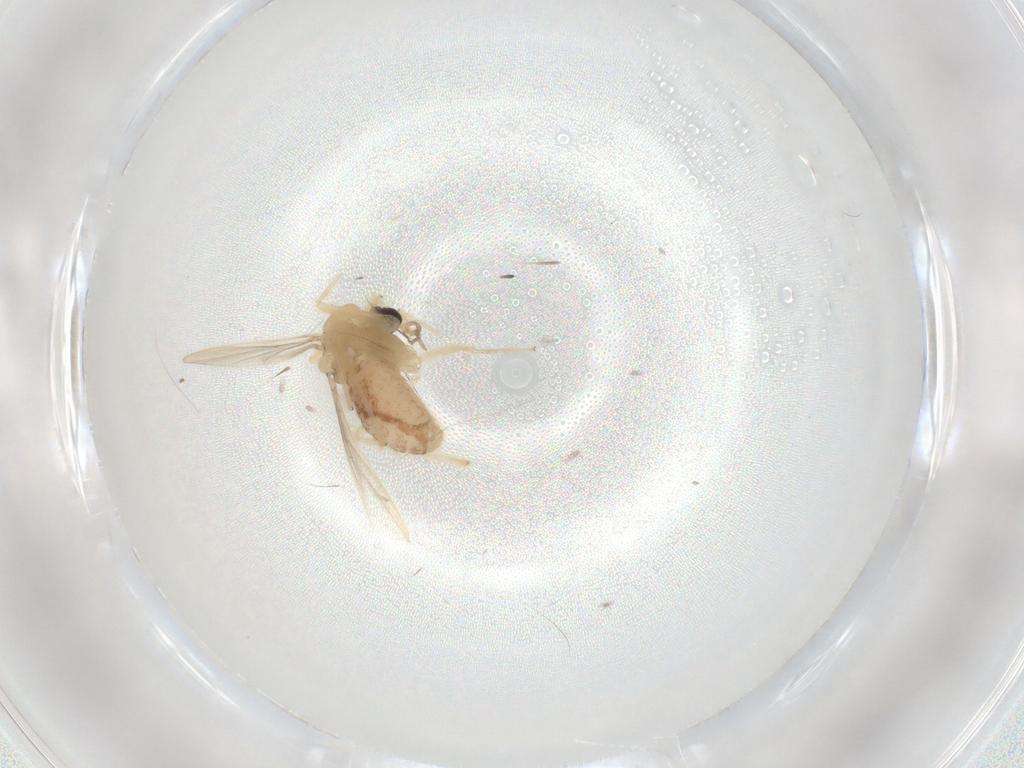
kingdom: Animalia
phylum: Arthropoda
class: Insecta
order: Diptera
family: Chironomidae
